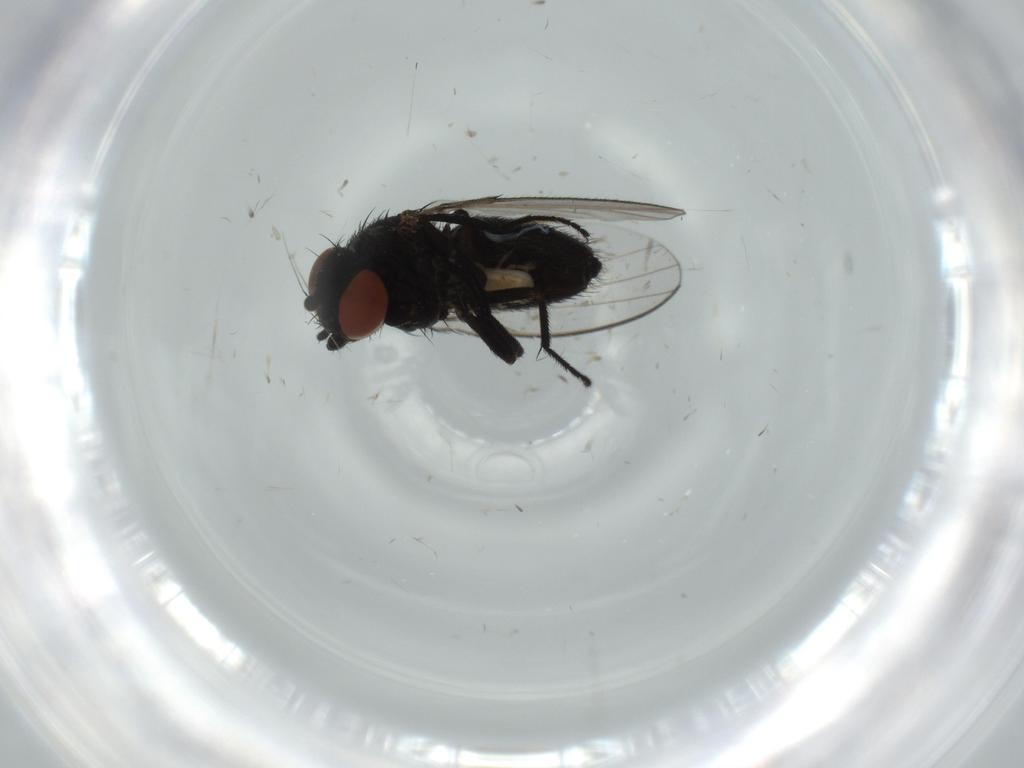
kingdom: Animalia
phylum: Arthropoda
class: Insecta
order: Diptera
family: Milichiidae
